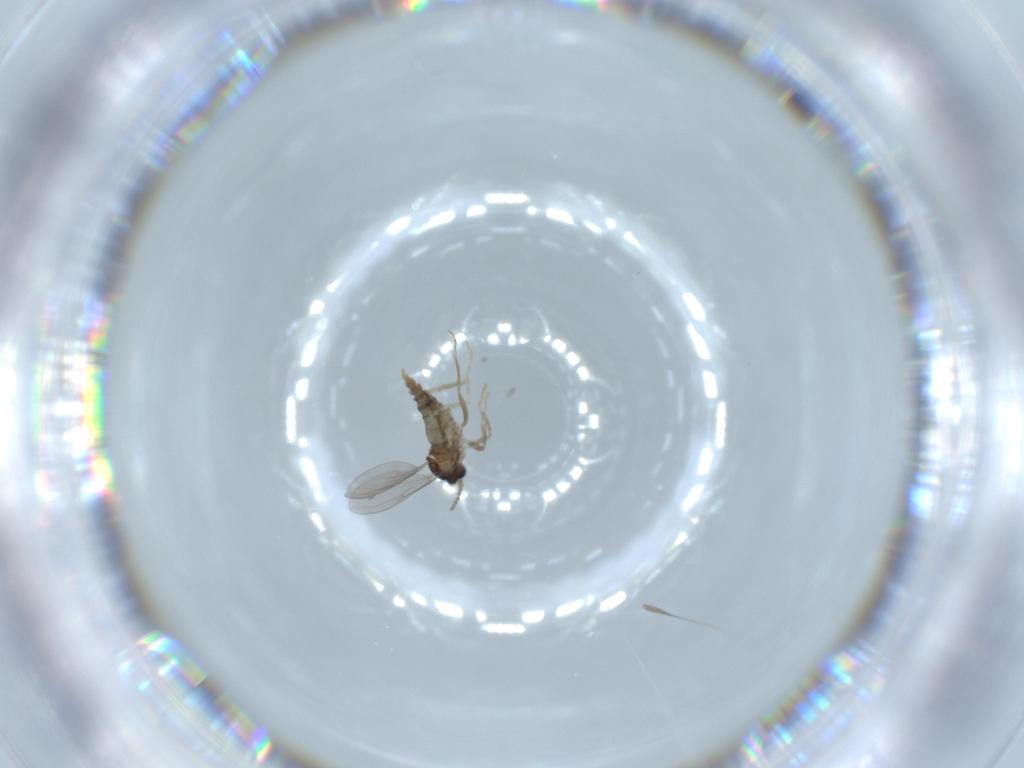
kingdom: Animalia
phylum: Arthropoda
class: Insecta
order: Diptera
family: Cecidomyiidae
